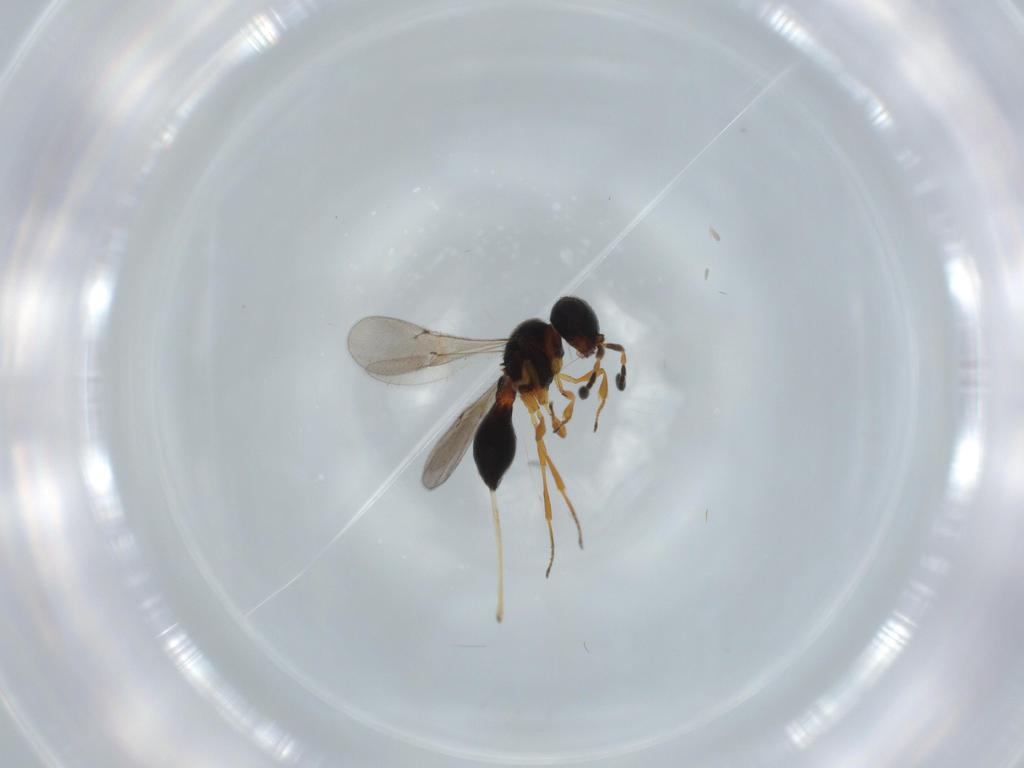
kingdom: Animalia
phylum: Arthropoda
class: Insecta
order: Hymenoptera
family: Scelionidae
